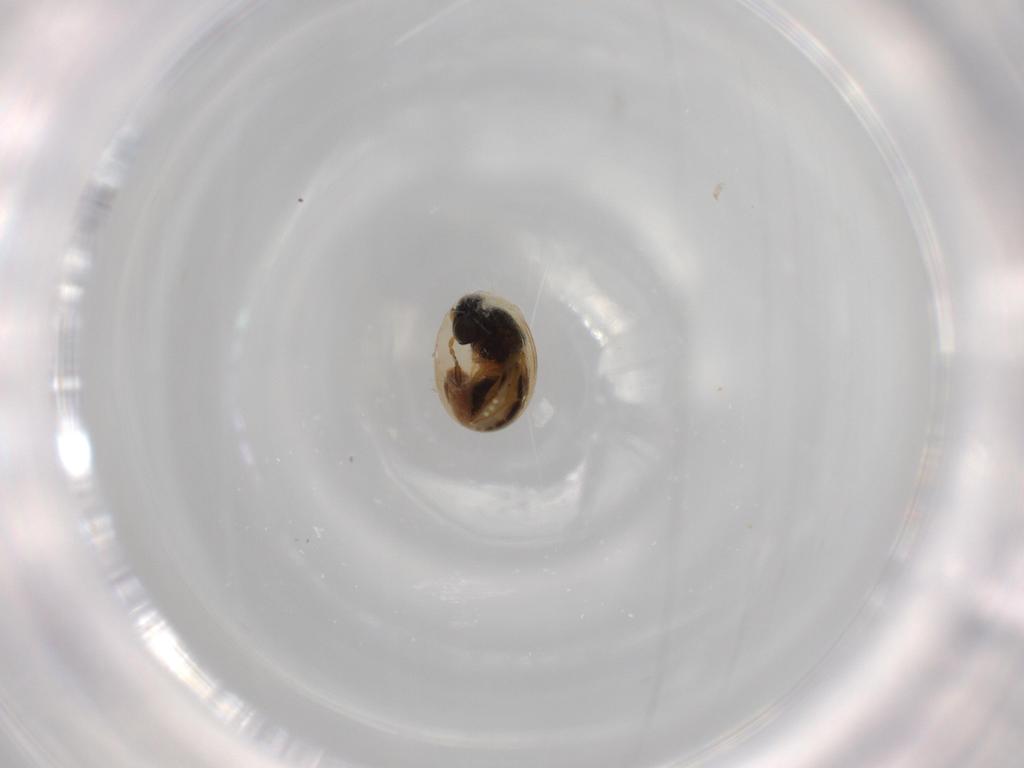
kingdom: Animalia
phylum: Arthropoda
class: Insecta
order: Hymenoptera
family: Scelionidae
